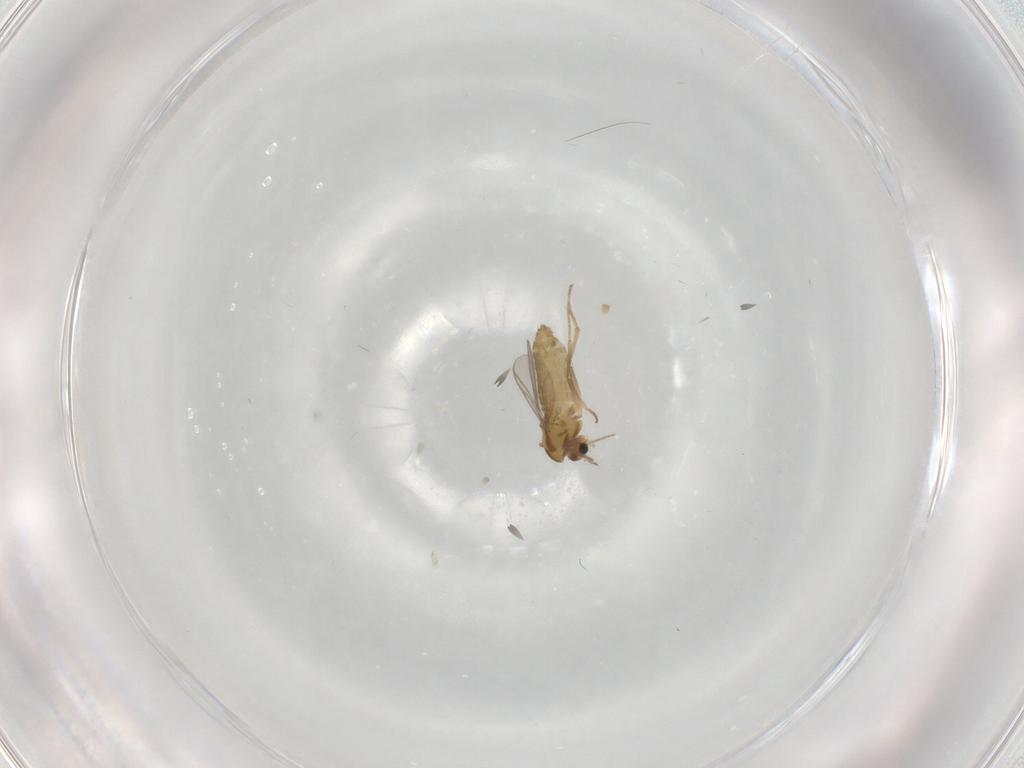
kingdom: Animalia
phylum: Arthropoda
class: Insecta
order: Diptera
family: Chironomidae
